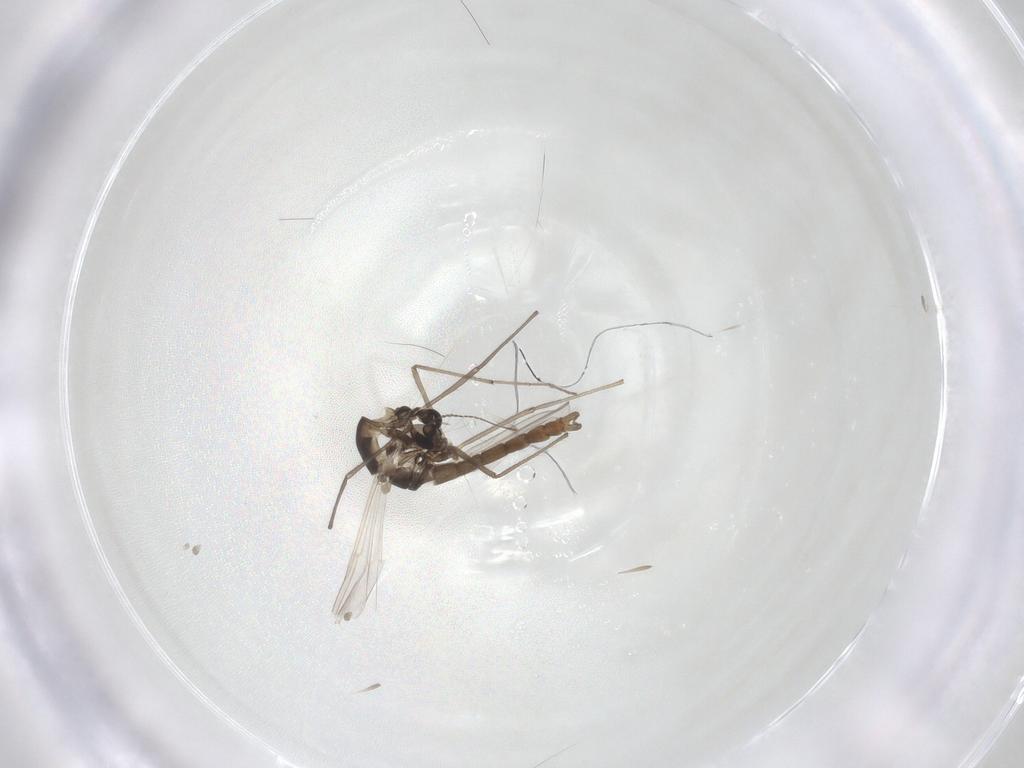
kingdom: Animalia
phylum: Arthropoda
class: Insecta
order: Diptera
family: Chironomidae
